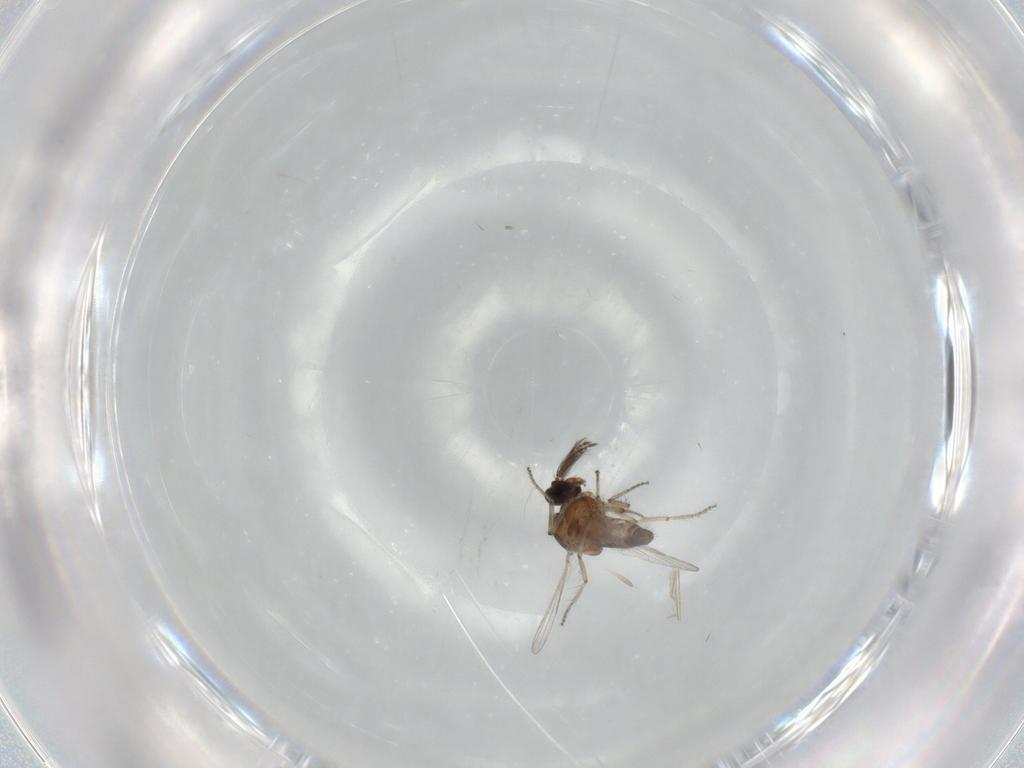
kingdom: Animalia
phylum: Arthropoda
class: Insecta
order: Diptera
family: Ceratopogonidae
